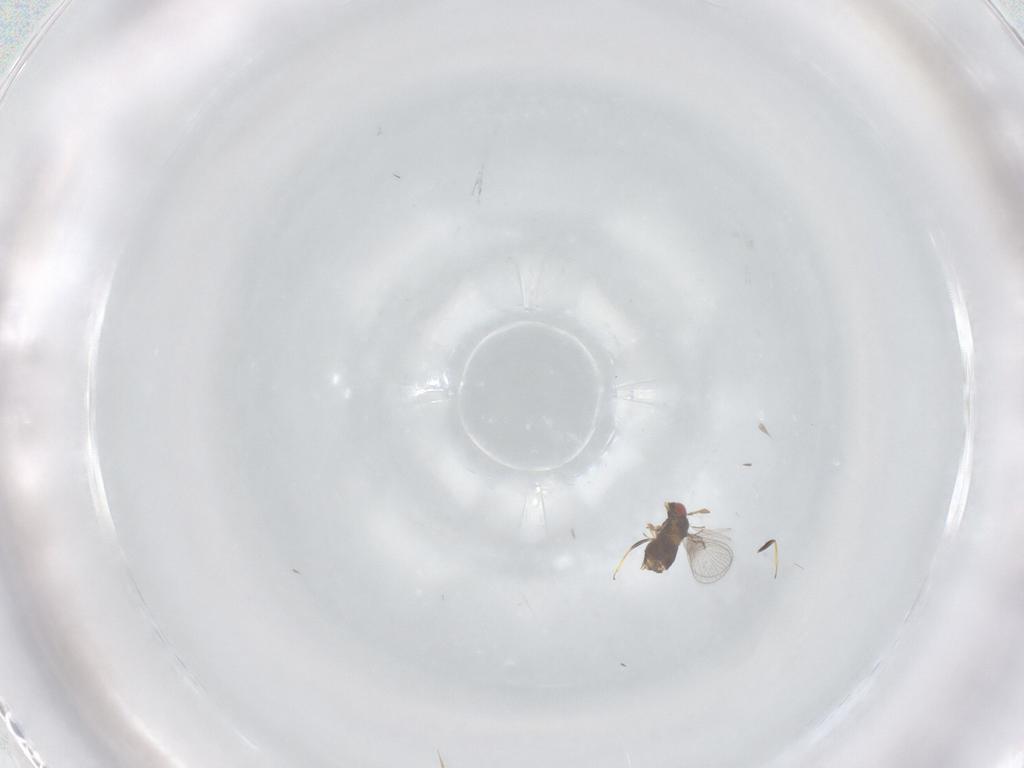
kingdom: Animalia
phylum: Arthropoda
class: Insecta
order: Hymenoptera
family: Trichogrammatidae
